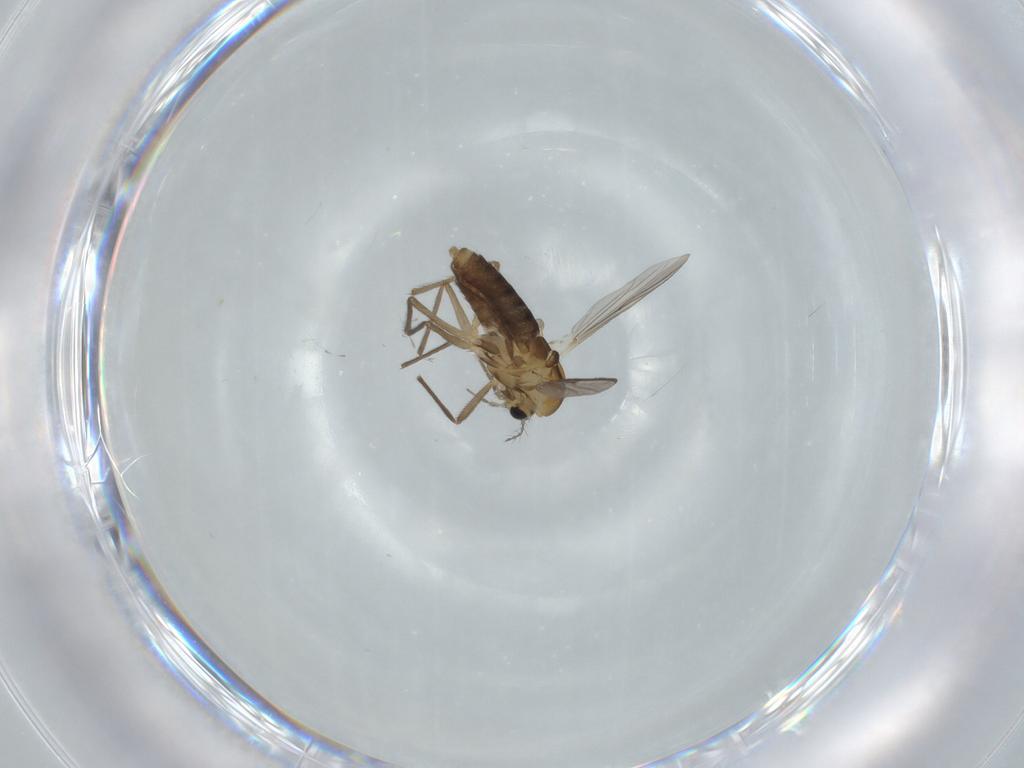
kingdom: Animalia
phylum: Arthropoda
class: Insecta
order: Diptera
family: Chironomidae
